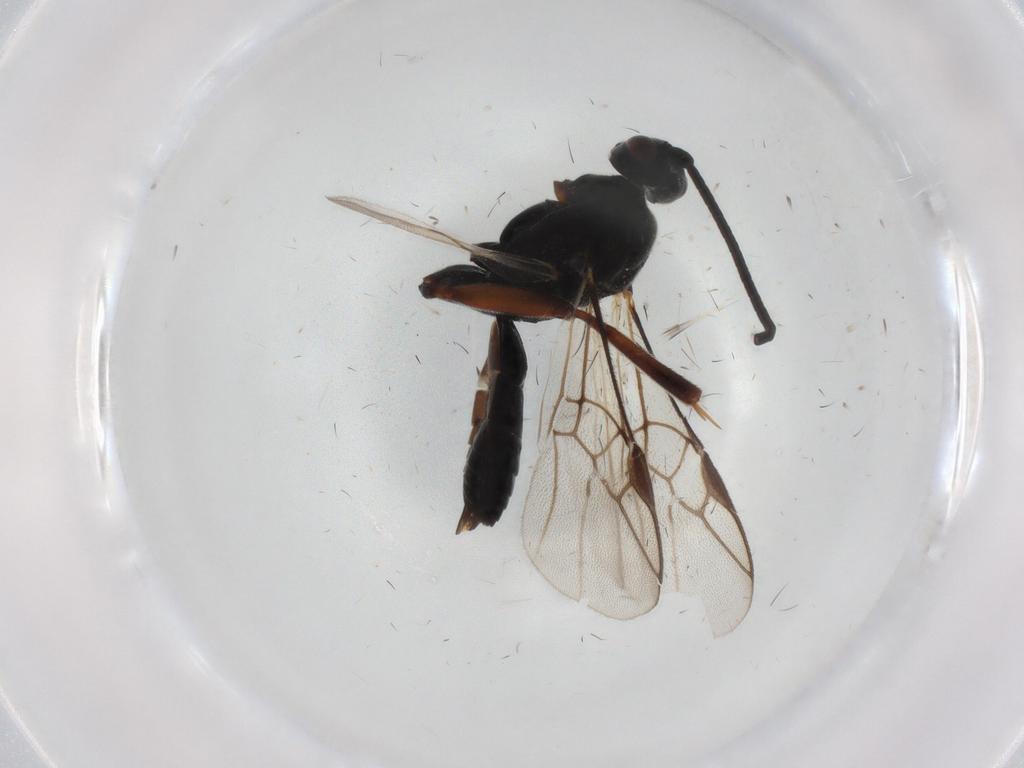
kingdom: Animalia
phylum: Arthropoda
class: Insecta
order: Hymenoptera
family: Braconidae
